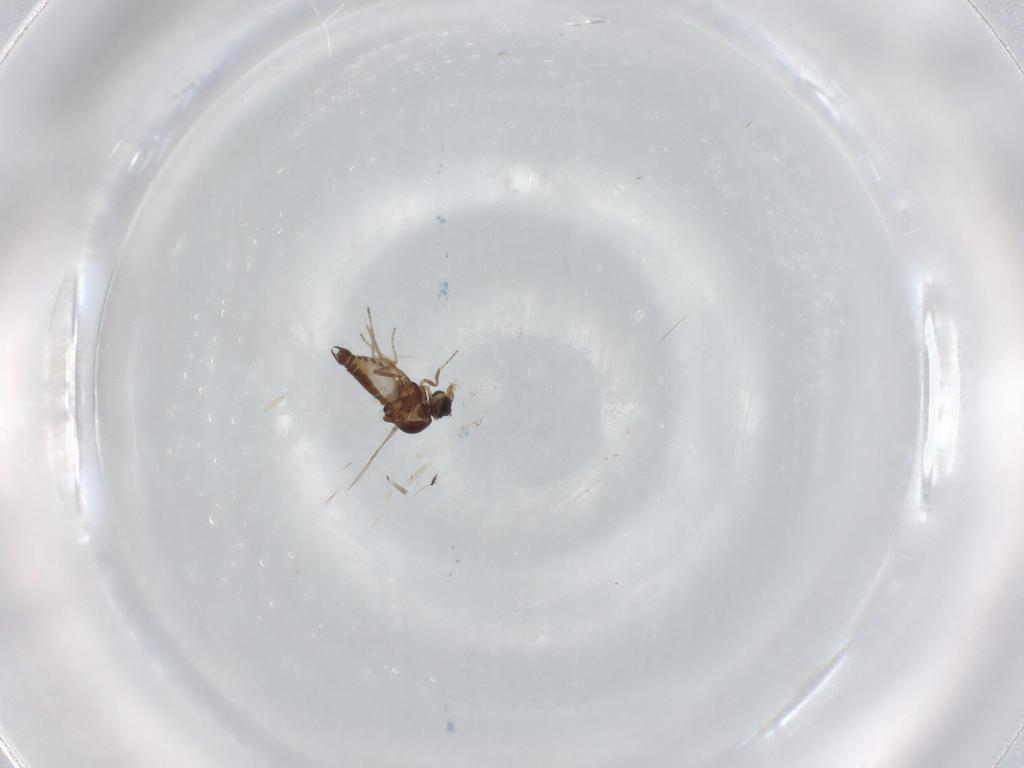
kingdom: Animalia
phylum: Arthropoda
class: Insecta
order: Diptera
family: Ceratopogonidae
